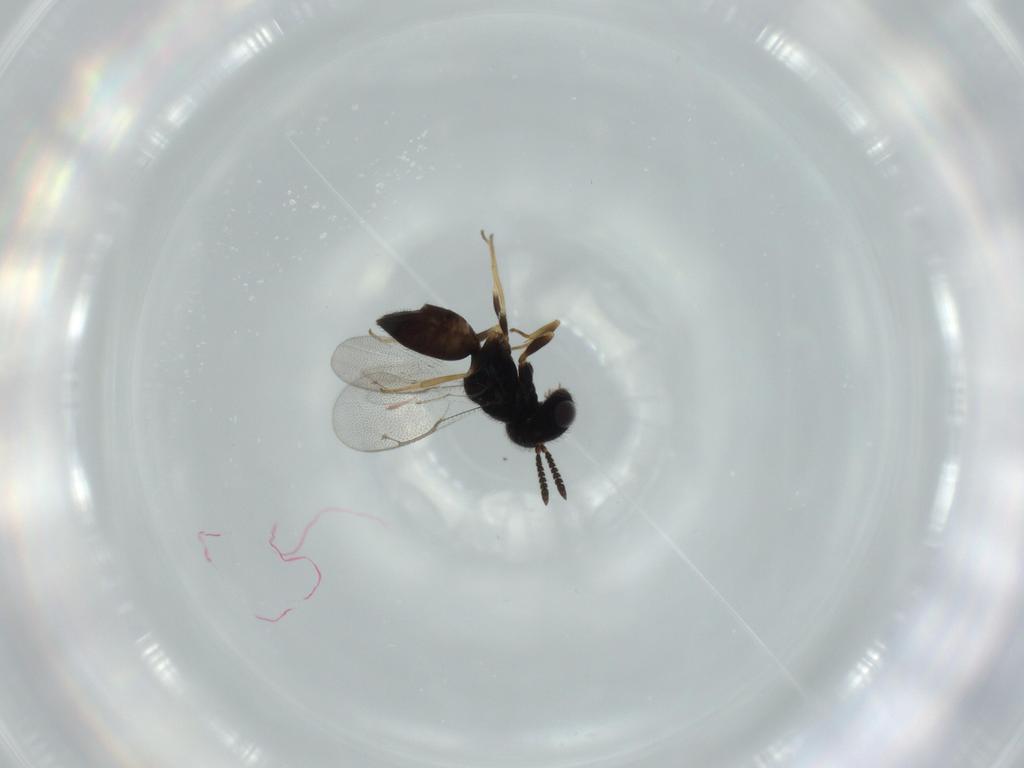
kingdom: Animalia
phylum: Arthropoda
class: Insecta
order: Hymenoptera
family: Pteromalidae
